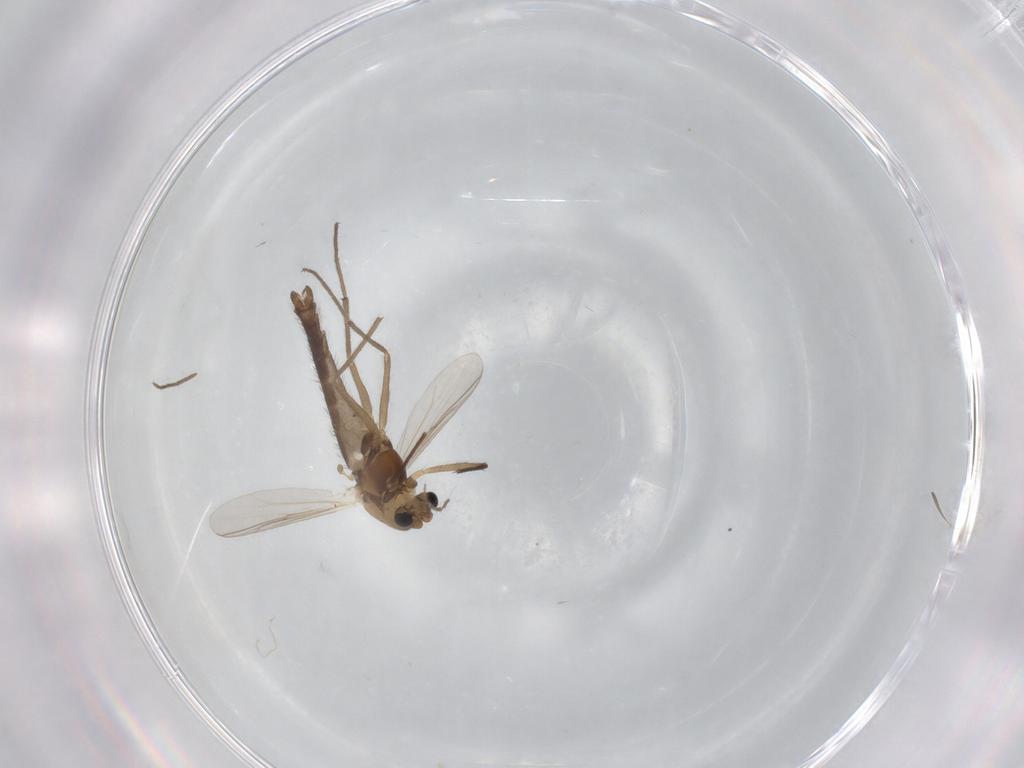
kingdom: Animalia
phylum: Arthropoda
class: Insecta
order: Diptera
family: Chironomidae
